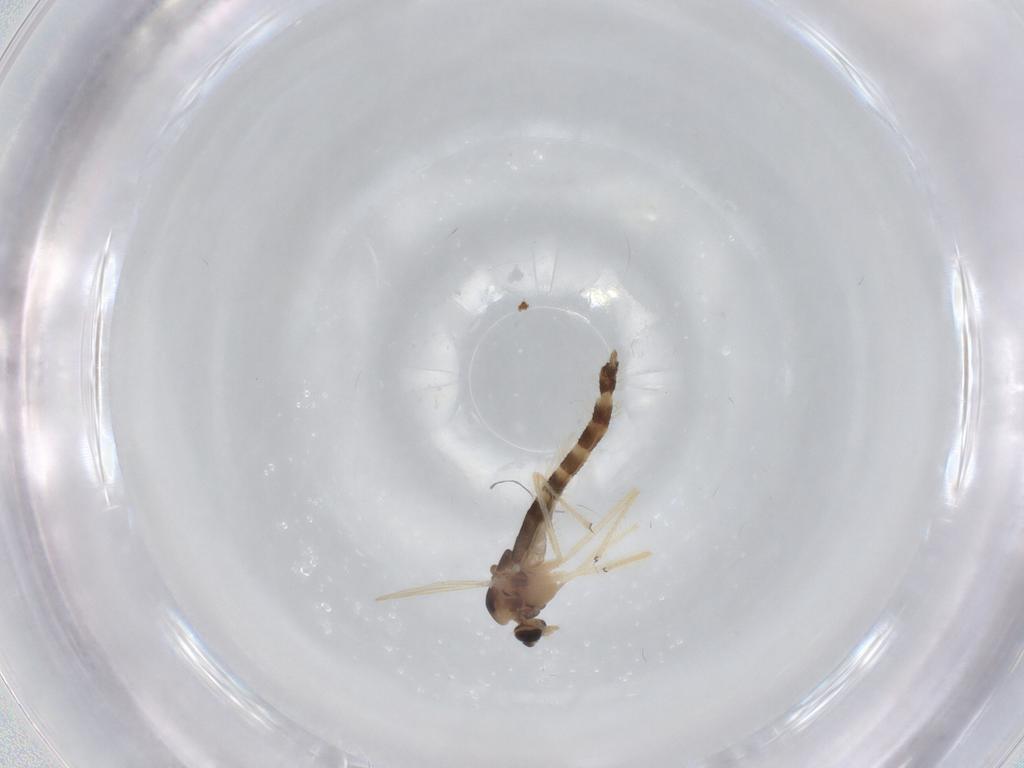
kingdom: Animalia
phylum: Arthropoda
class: Insecta
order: Diptera
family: Chironomidae
